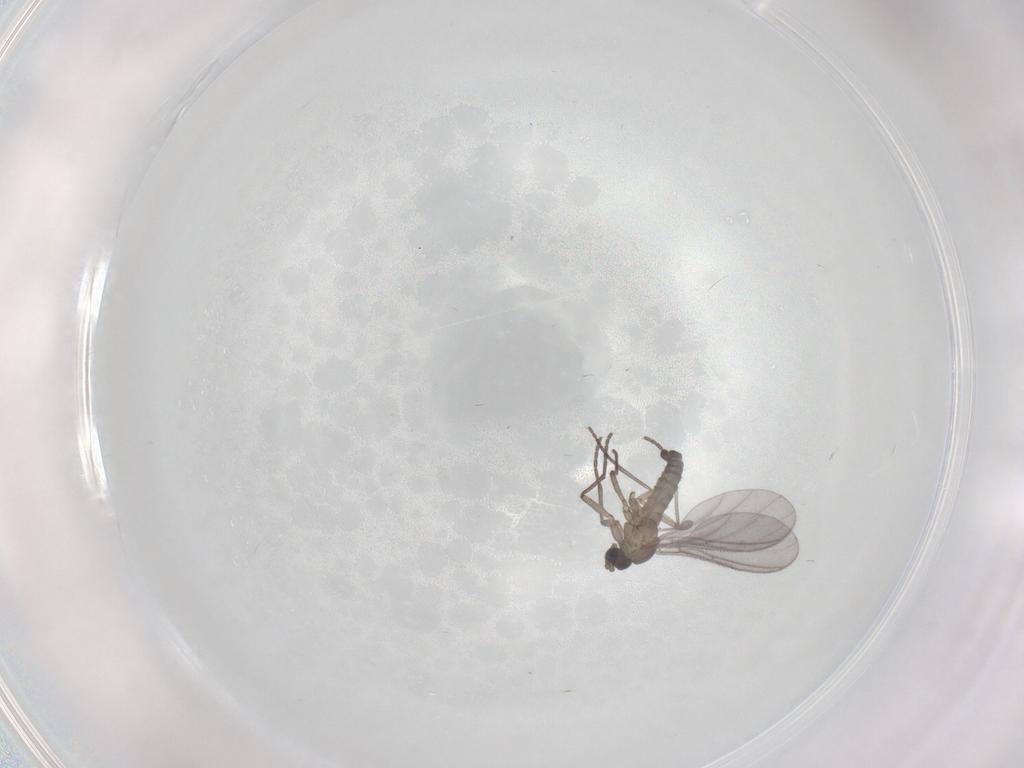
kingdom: Animalia
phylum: Arthropoda
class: Insecta
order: Diptera
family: Sciaridae
